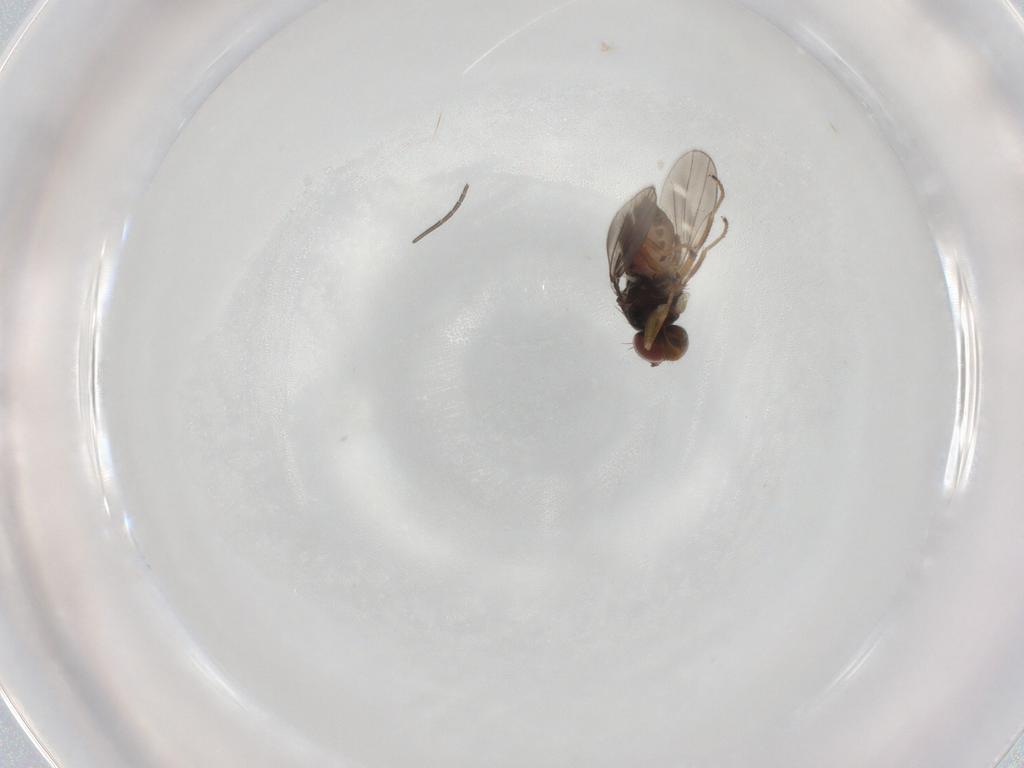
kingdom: Animalia
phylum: Arthropoda
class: Insecta
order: Diptera
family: Ephydridae
